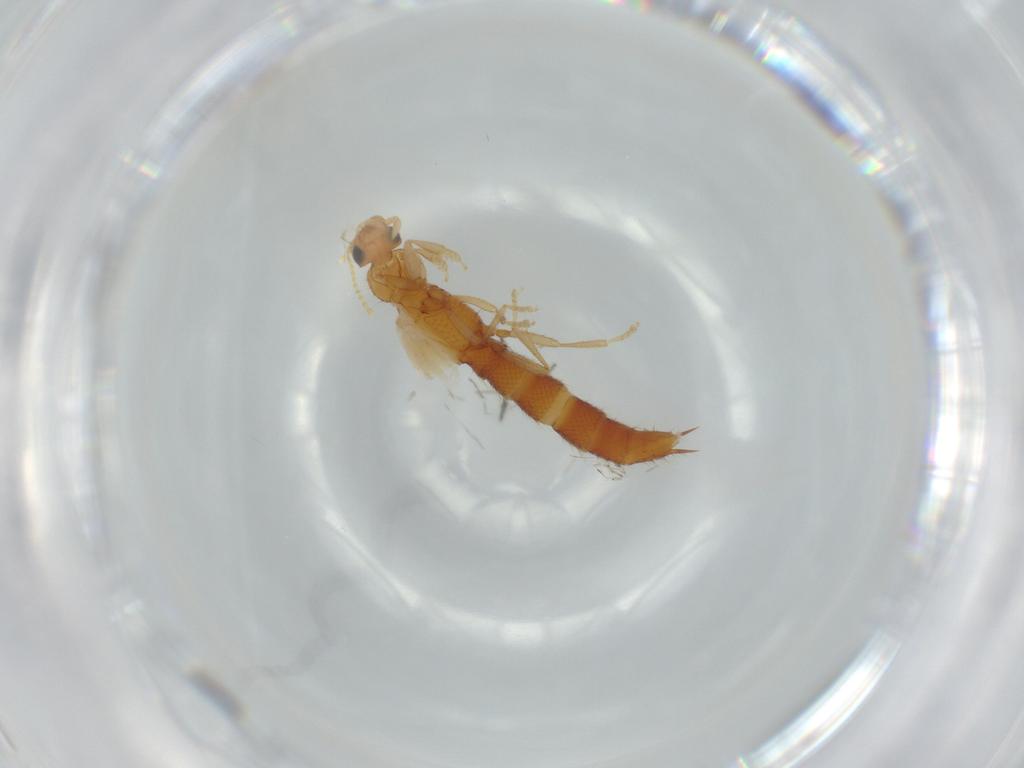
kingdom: Animalia
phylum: Arthropoda
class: Insecta
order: Coleoptera
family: Staphylinidae
